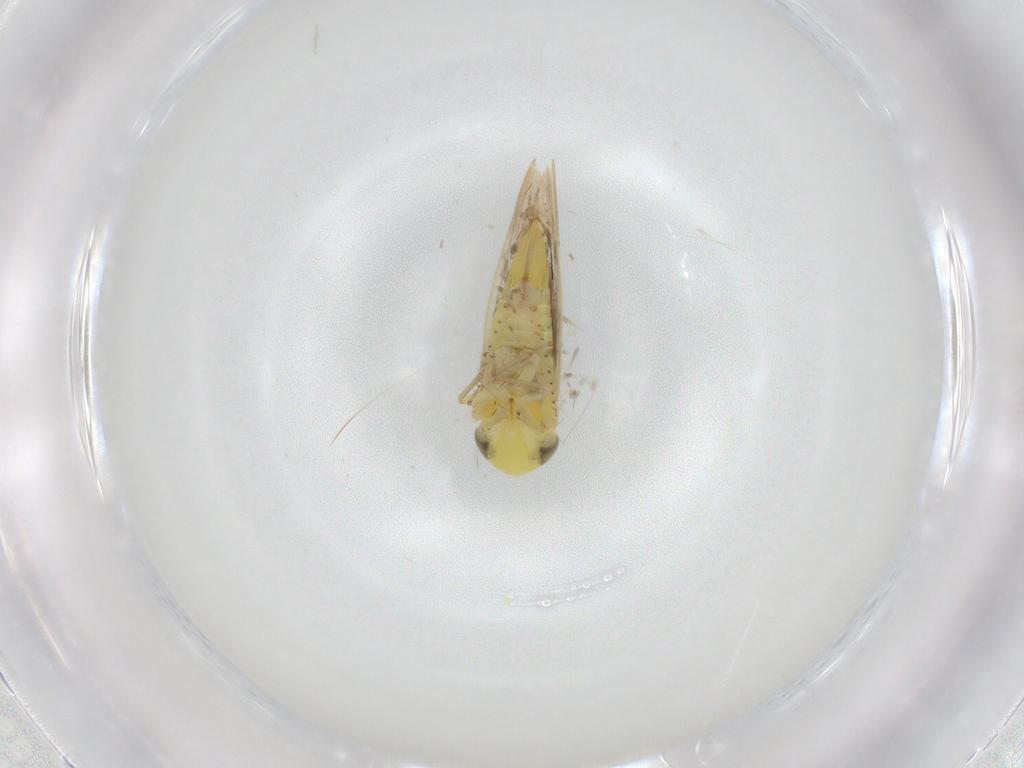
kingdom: Animalia
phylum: Arthropoda
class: Insecta
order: Hemiptera
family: Cicadellidae
